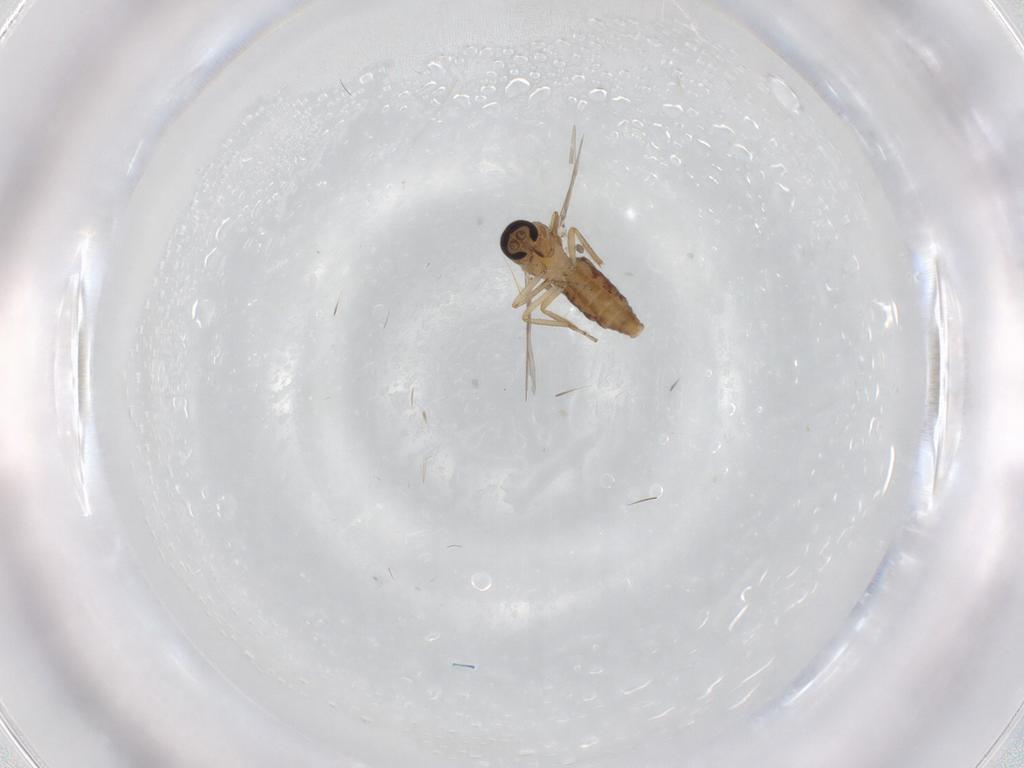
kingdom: Animalia
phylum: Arthropoda
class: Insecta
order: Diptera
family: Ceratopogonidae
